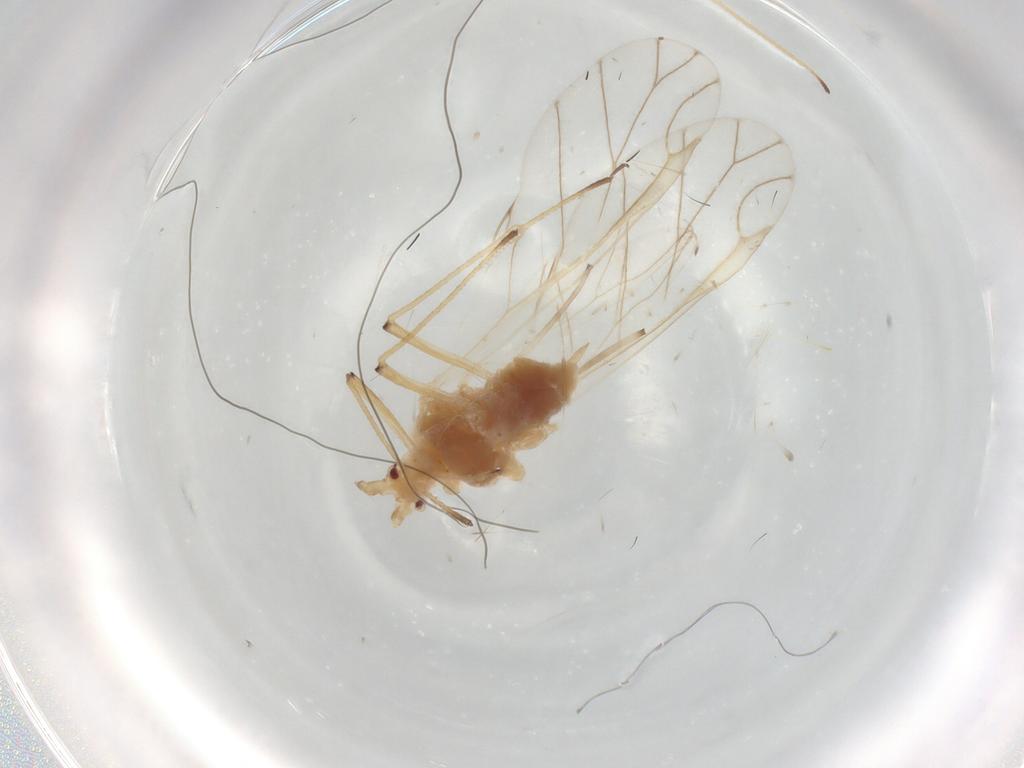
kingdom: Animalia
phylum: Arthropoda
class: Insecta
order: Hemiptera
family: Aphididae
